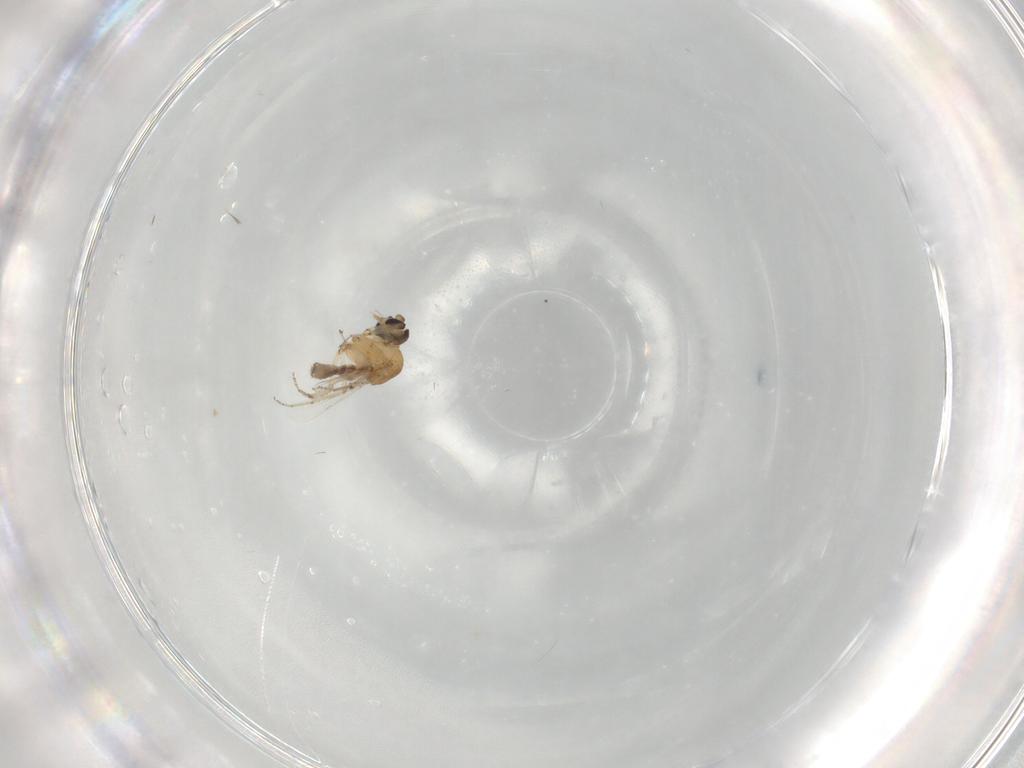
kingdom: Animalia
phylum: Arthropoda
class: Insecta
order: Diptera
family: Ceratopogonidae
